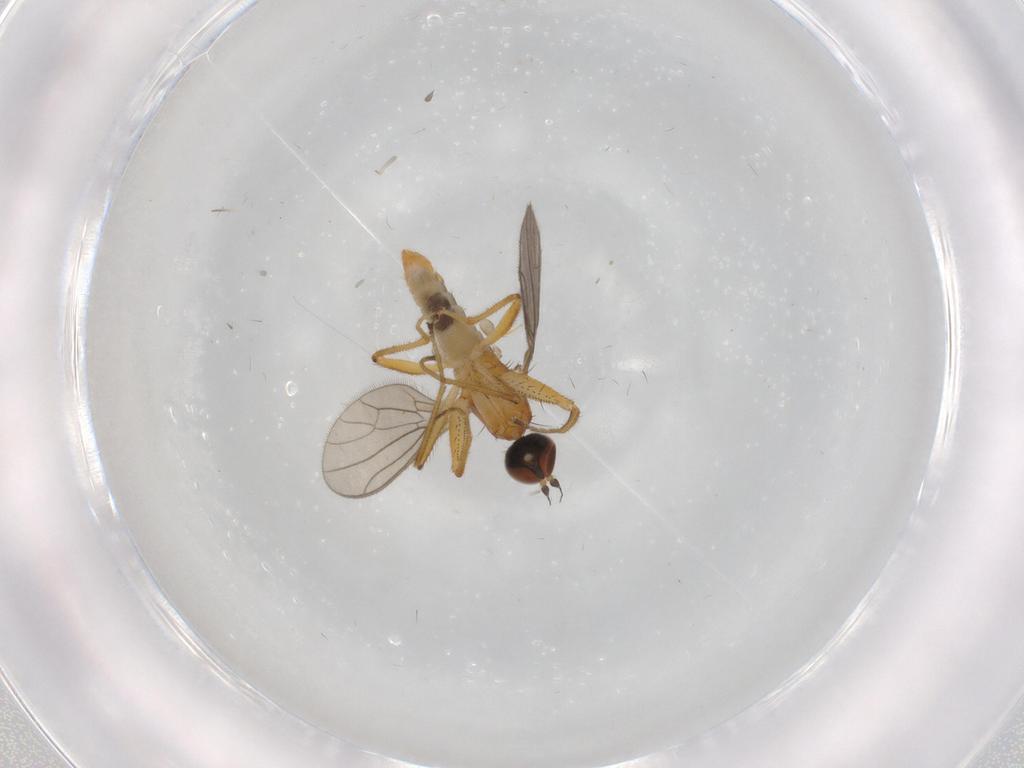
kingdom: Animalia
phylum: Arthropoda
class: Insecta
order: Diptera
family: Empididae
